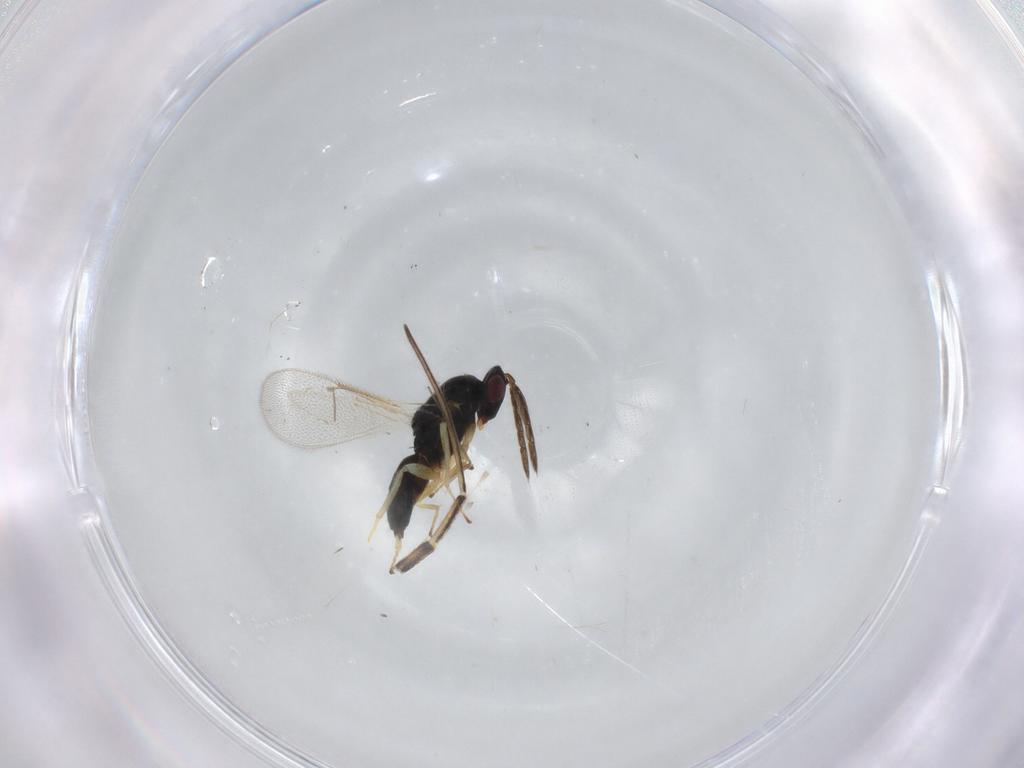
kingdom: Animalia
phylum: Arthropoda
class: Insecta
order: Hymenoptera
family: Eulophidae
